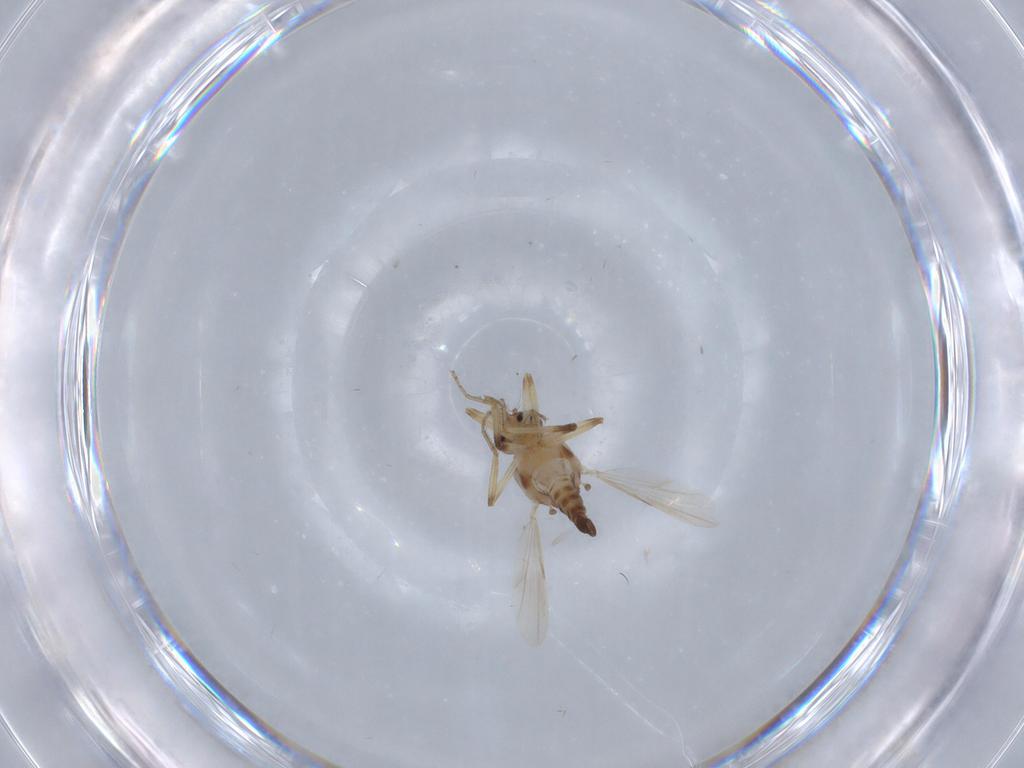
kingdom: Animalia
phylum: Arthropoda
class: Insecta
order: Diptera
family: Ceratopogonidae
